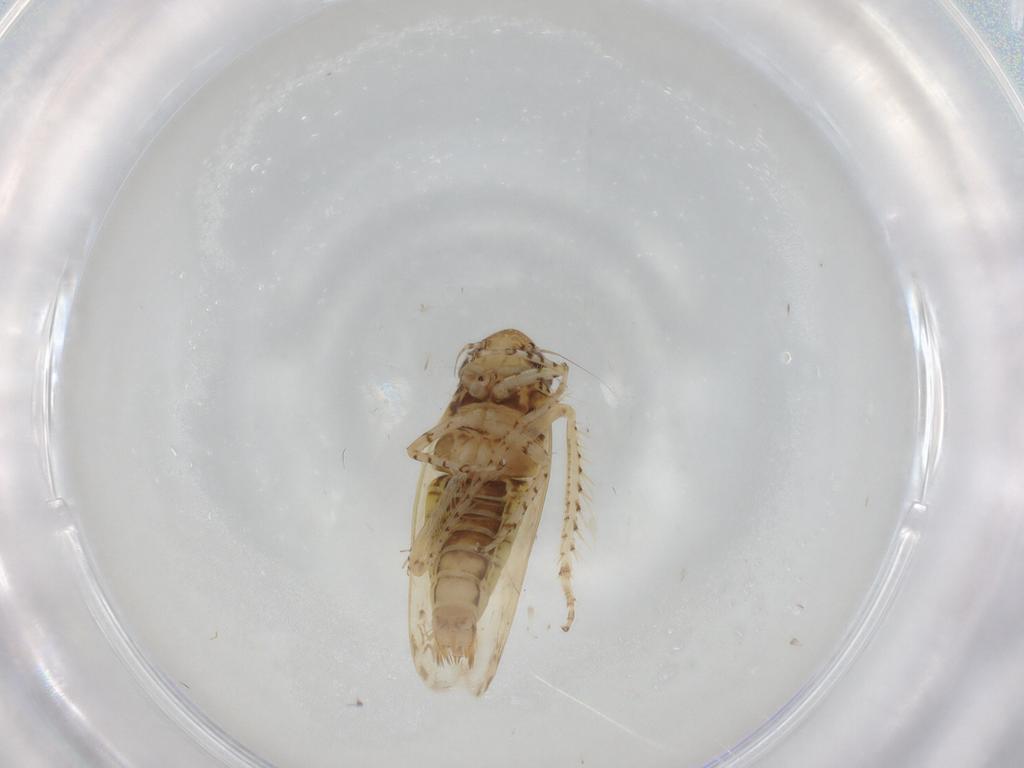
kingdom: Animalia
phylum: Arthropoda
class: Insecta
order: Hemiptera
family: Cicadellidae
